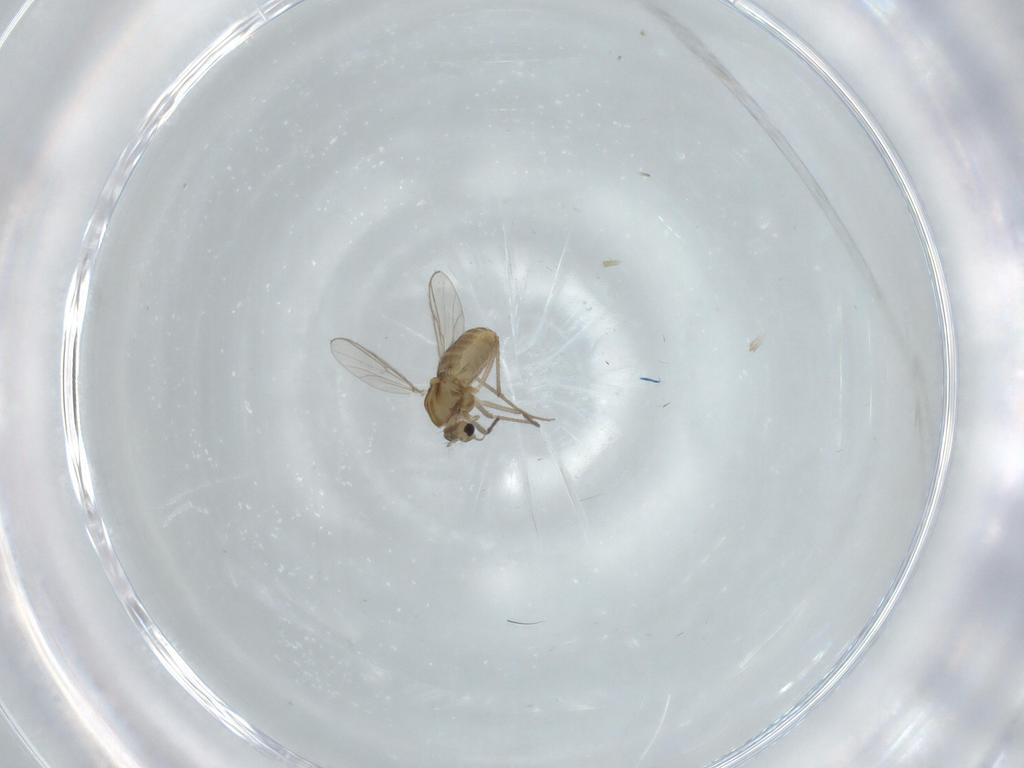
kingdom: Animalia
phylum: Arthropoda
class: Insecta
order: Diptera
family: Chironomidae
